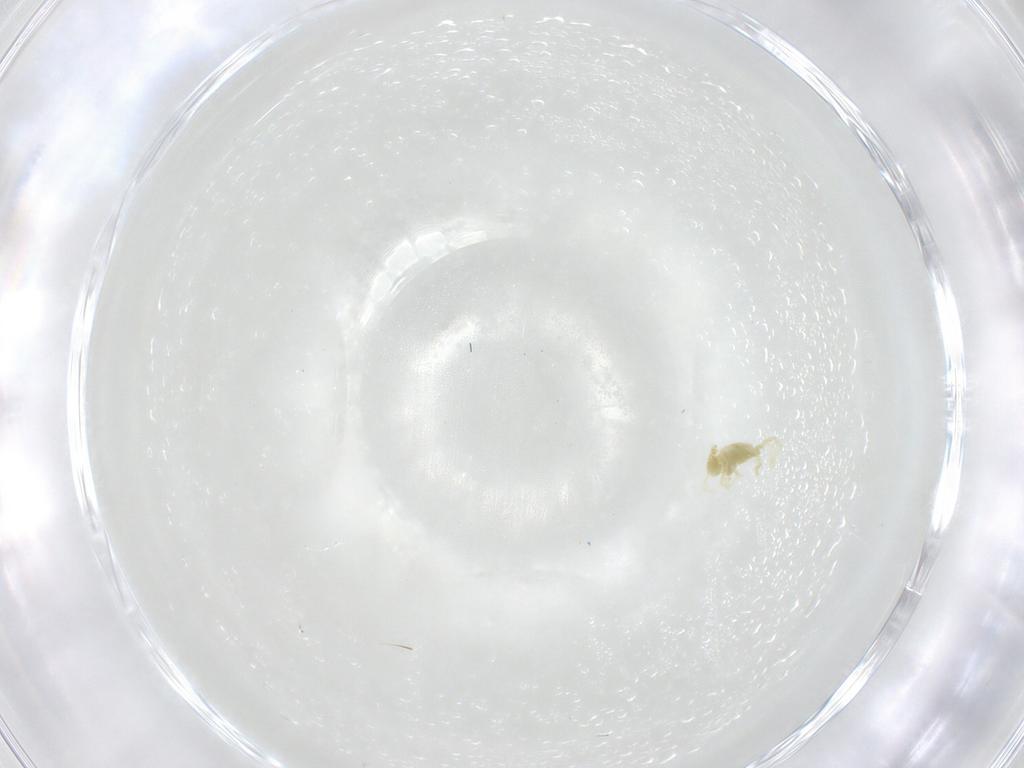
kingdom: Animalia
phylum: Arthropoda
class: Arachnida
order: Trombidiformes
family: Erythraeidae
